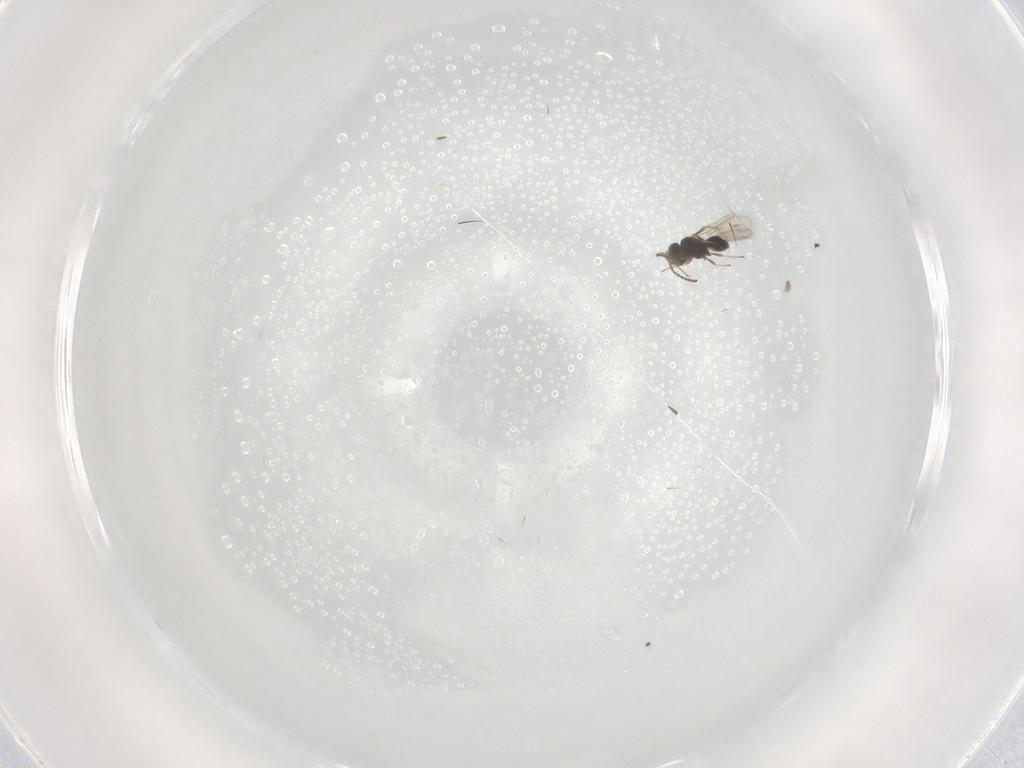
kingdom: Animalia
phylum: Arthropoda
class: Insecta
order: Hymenoptera
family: Scelionidae
